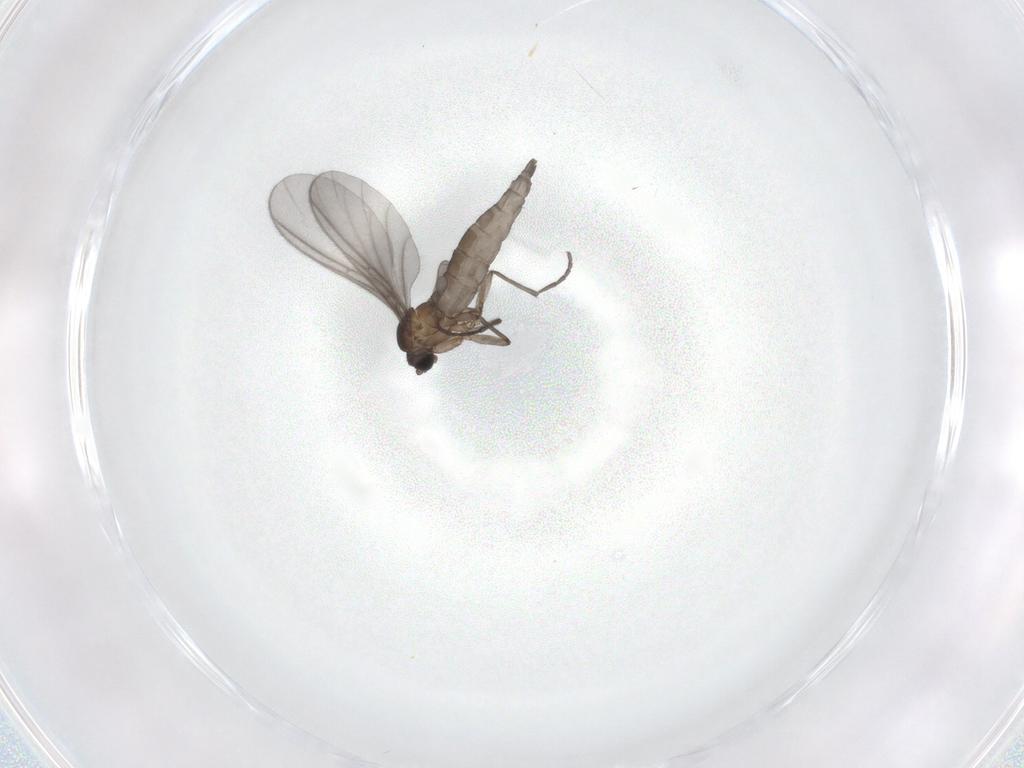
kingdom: Animalia
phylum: Arthropoda
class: Insecta
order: Diptera
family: Sciaridae
